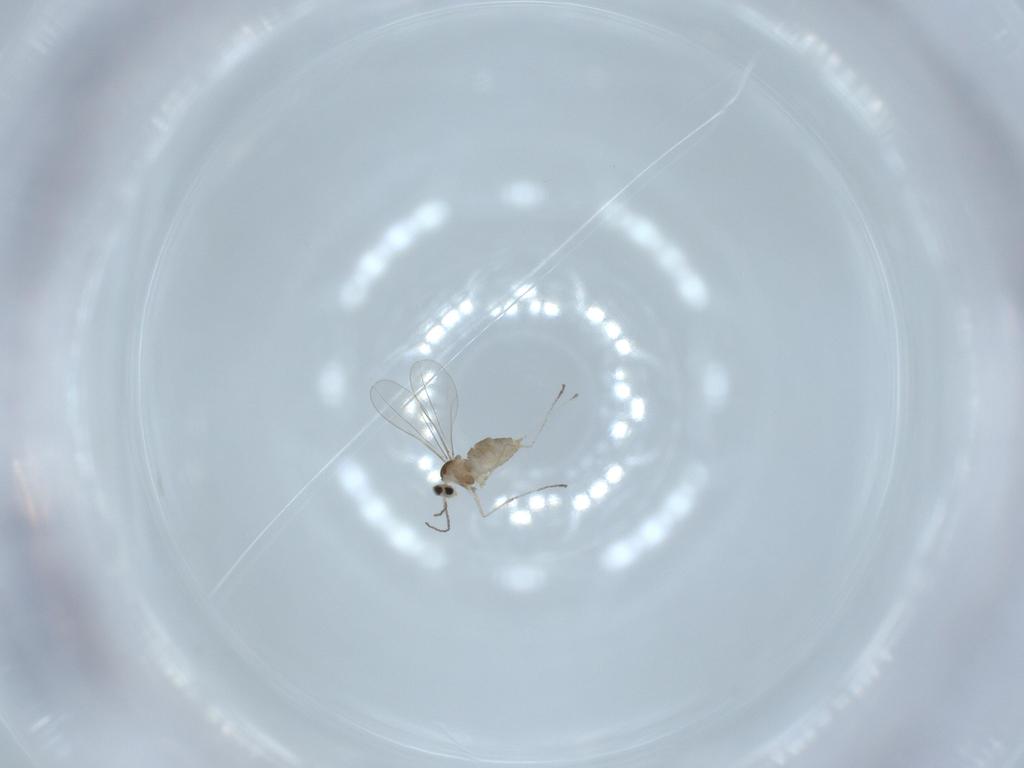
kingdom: Animalia
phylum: Arthropoda
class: Insecta
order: Diptera
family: Cecidomyiidae
